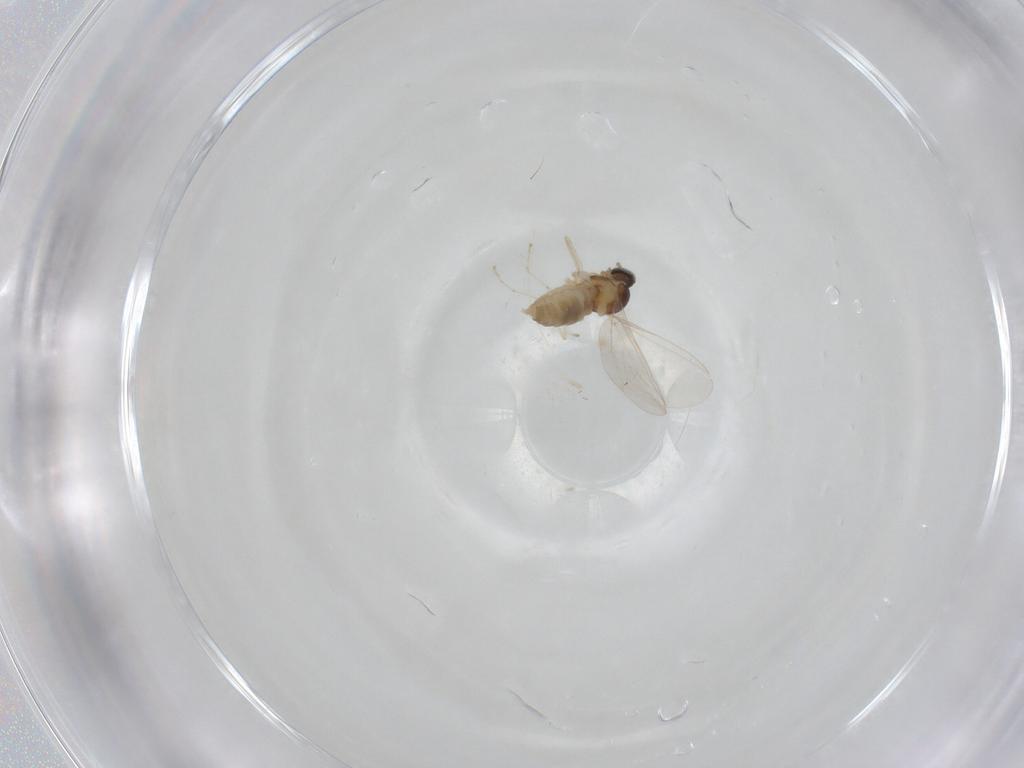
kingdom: Animalia
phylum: Arthropoda
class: Insecta
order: Diptera
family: Cecidomyiidae
